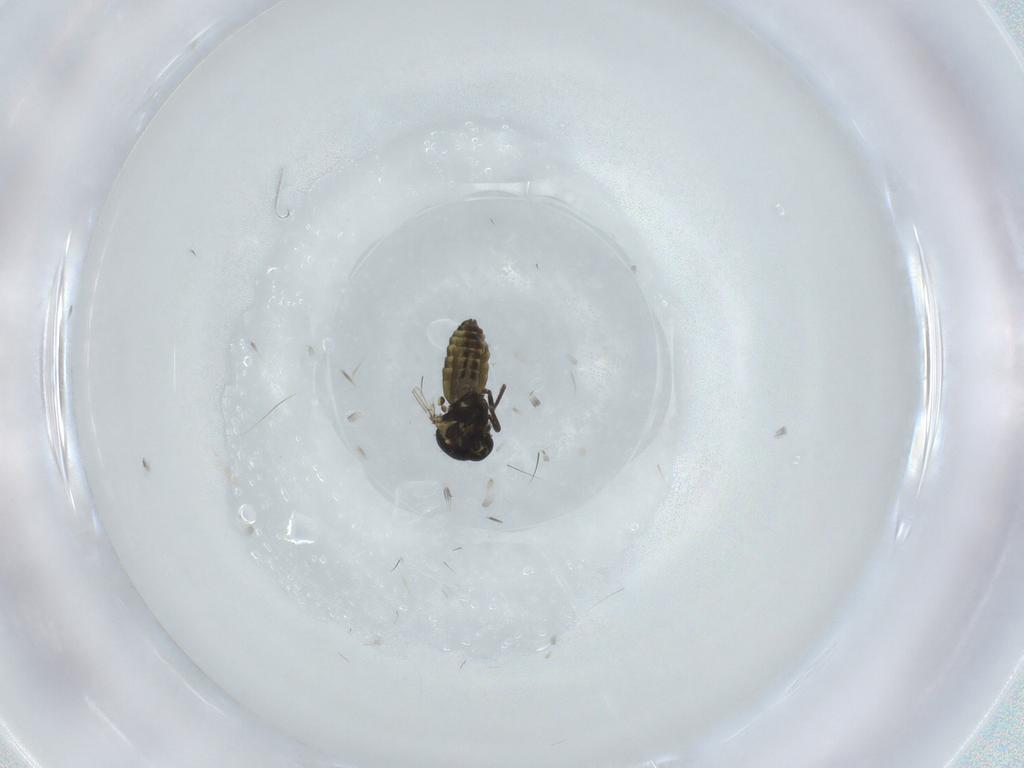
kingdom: Animalia
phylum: Arthropoda
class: Insecta
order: Diptera
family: Ceratopogonidae
